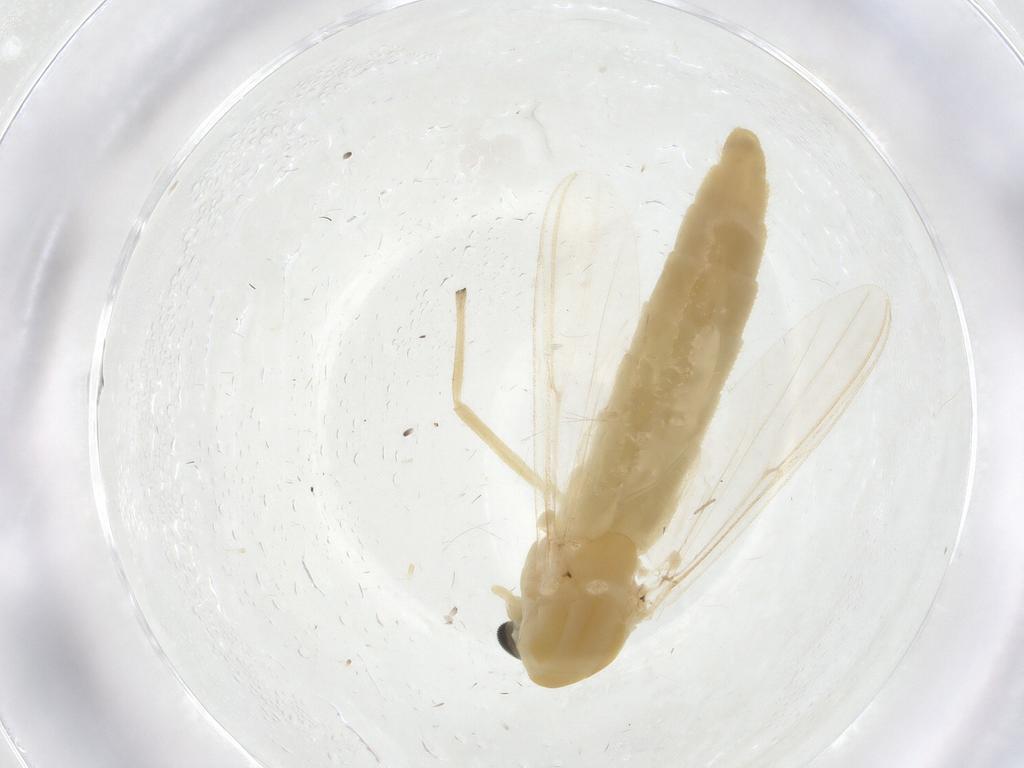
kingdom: Animalia
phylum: Arthropoda
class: Insecta
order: Diptera
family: Chironomidae
